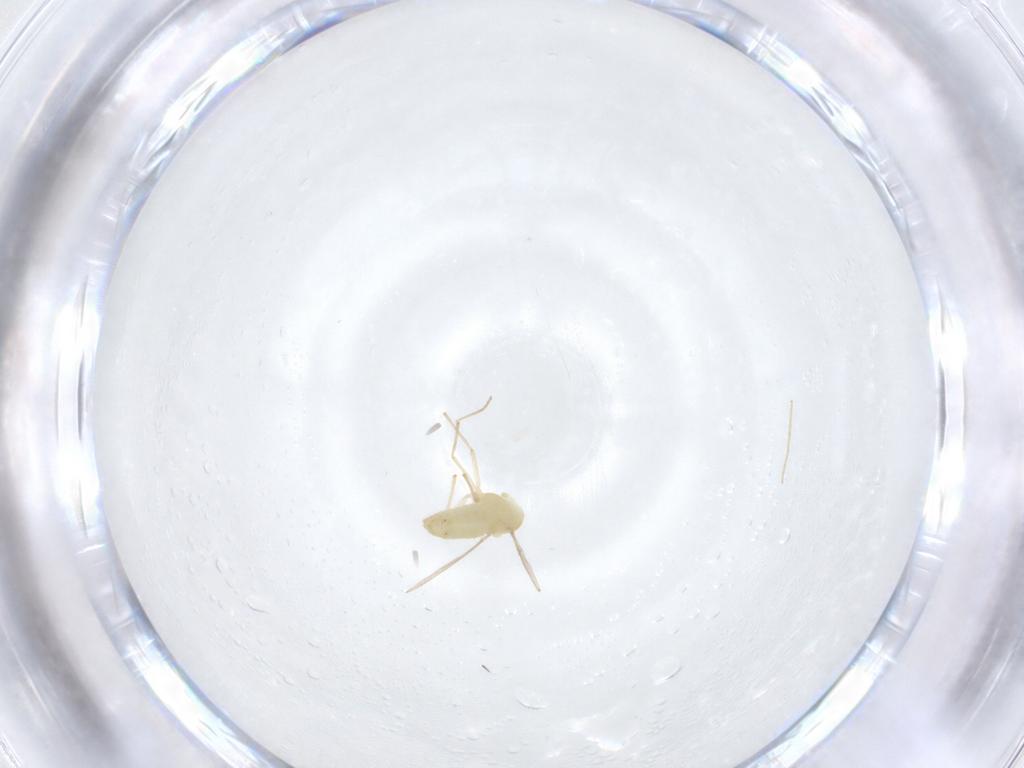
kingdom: Animalia
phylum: Arthropoda
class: Insecta
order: Diptera
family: Chironomidae
